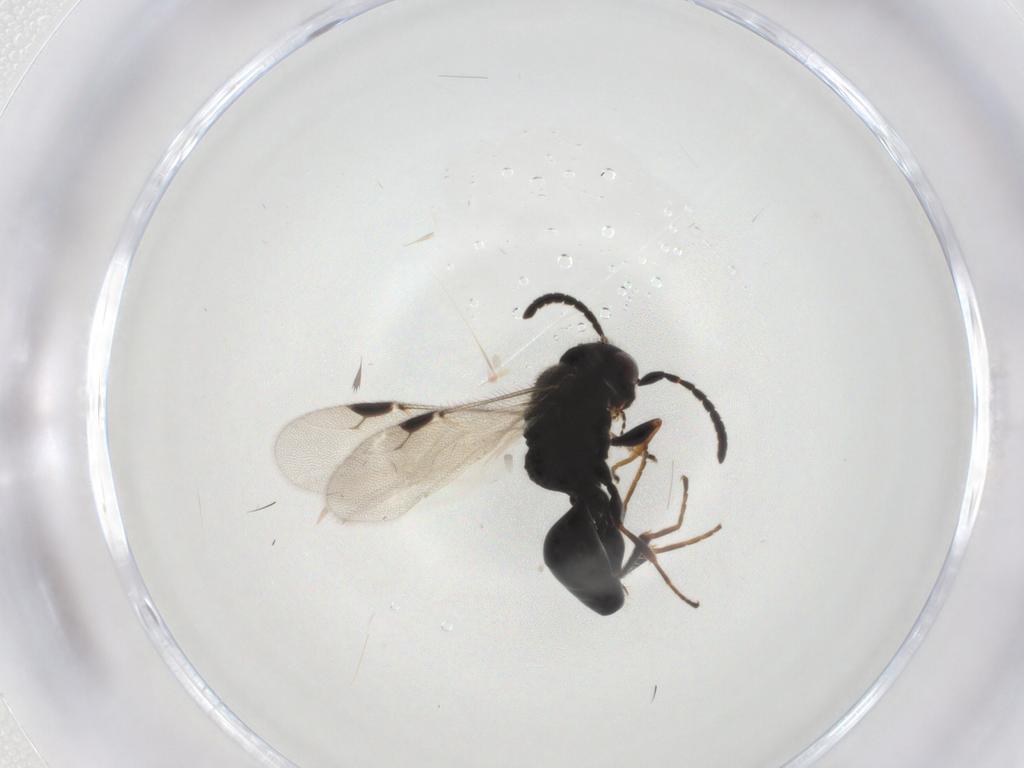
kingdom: Animalia
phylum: Arthropoda
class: Insecta
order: Hymenoptera
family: Dryinidae
